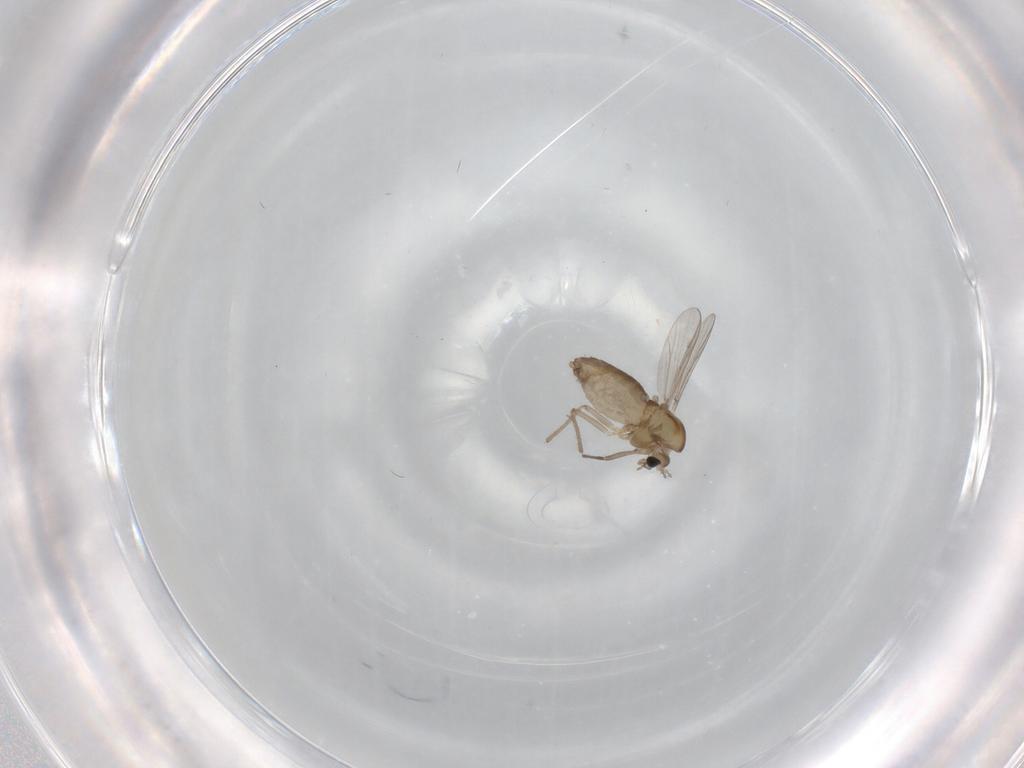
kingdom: Animalia
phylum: Arthropoda
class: Insecta
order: Diptera
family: Chironomidae
